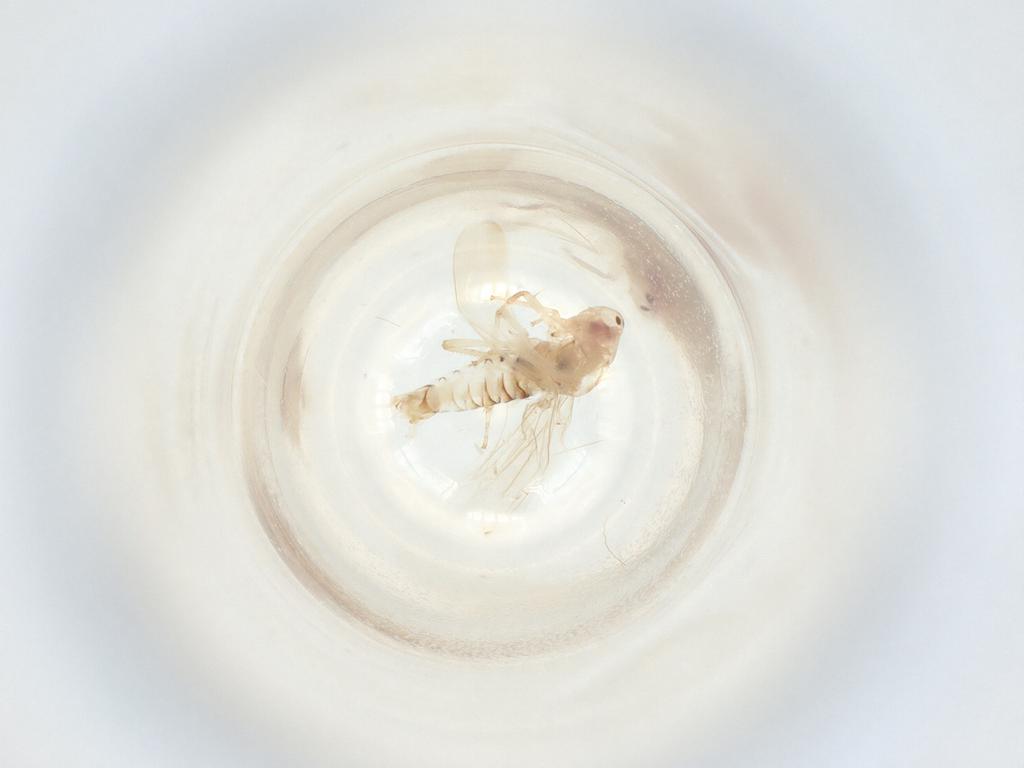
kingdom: Animalia
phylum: Arthropoda
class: Insecta
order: Hemiptera
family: Cicadellidae
